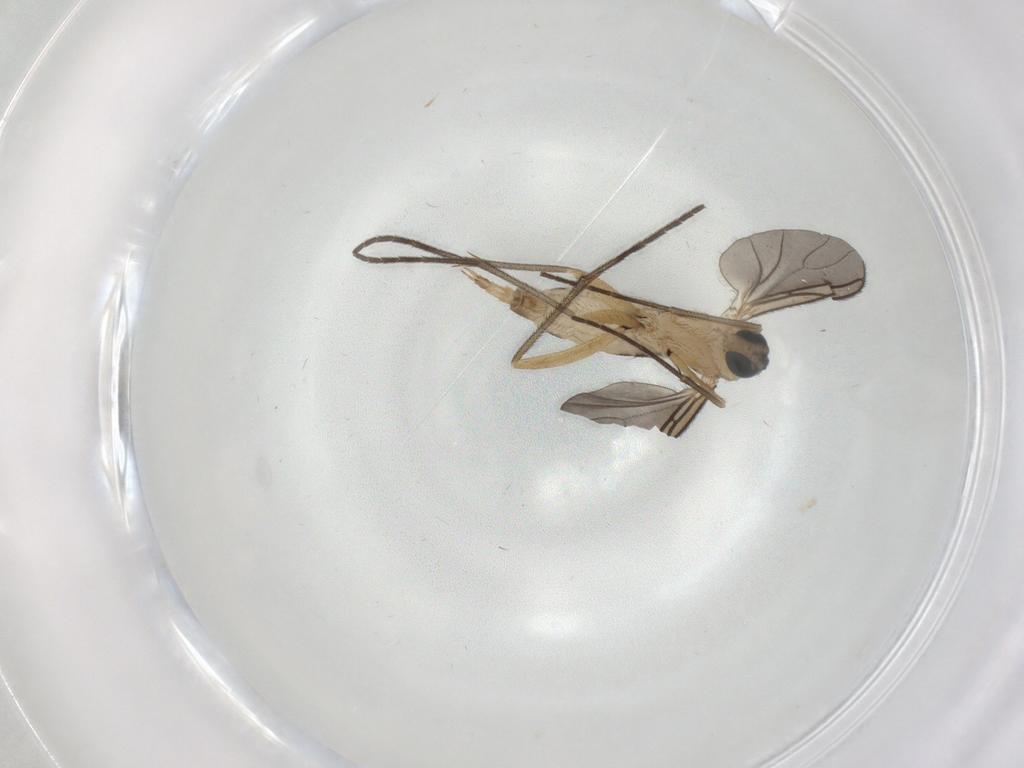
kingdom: Animalia
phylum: Arthropoda
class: Insecta
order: Diptera
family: Sciaridae
